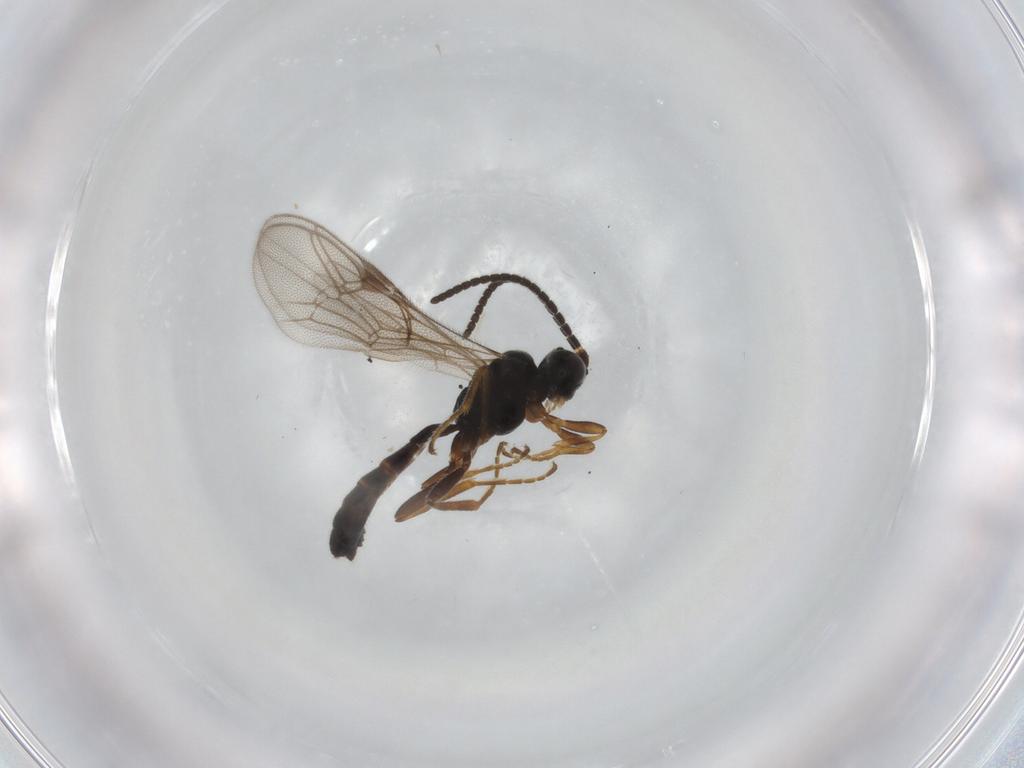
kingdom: Animalia
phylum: Arthropoda
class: Insecta
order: Hymenoptera
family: Ichneumonidae
